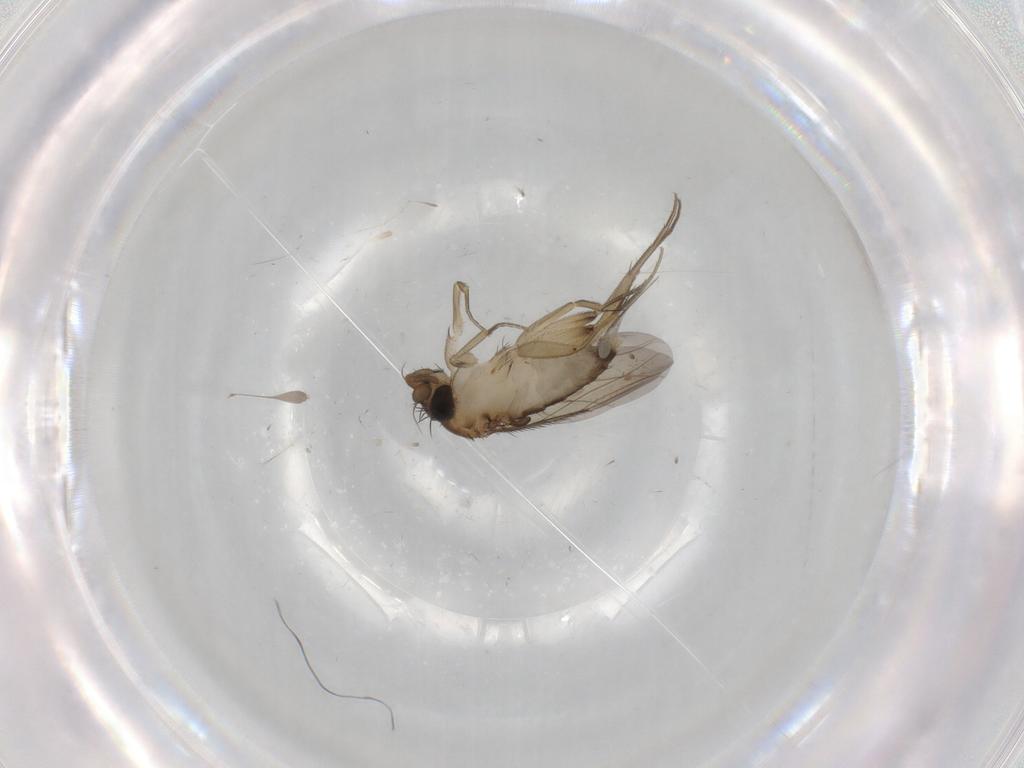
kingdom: Animalia
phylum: Arthropoda
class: Insecta
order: Diptera
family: Phoridae
